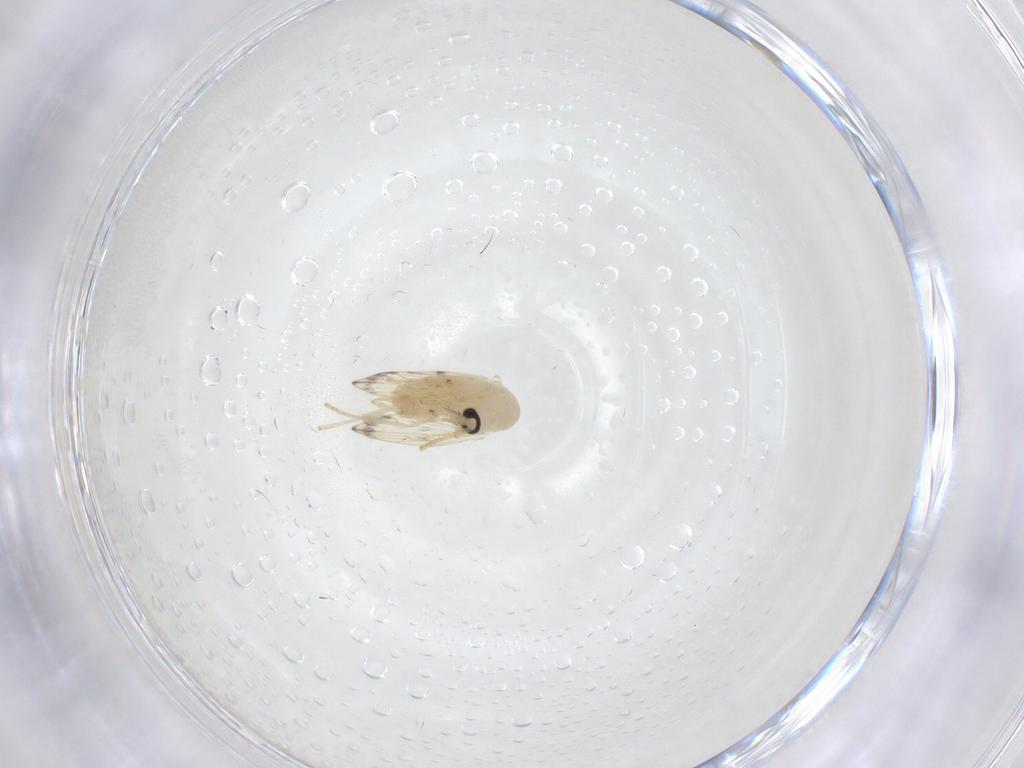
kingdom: Animalia
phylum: Arthropoda
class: Insecta
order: Diptera
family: Psychodidae
